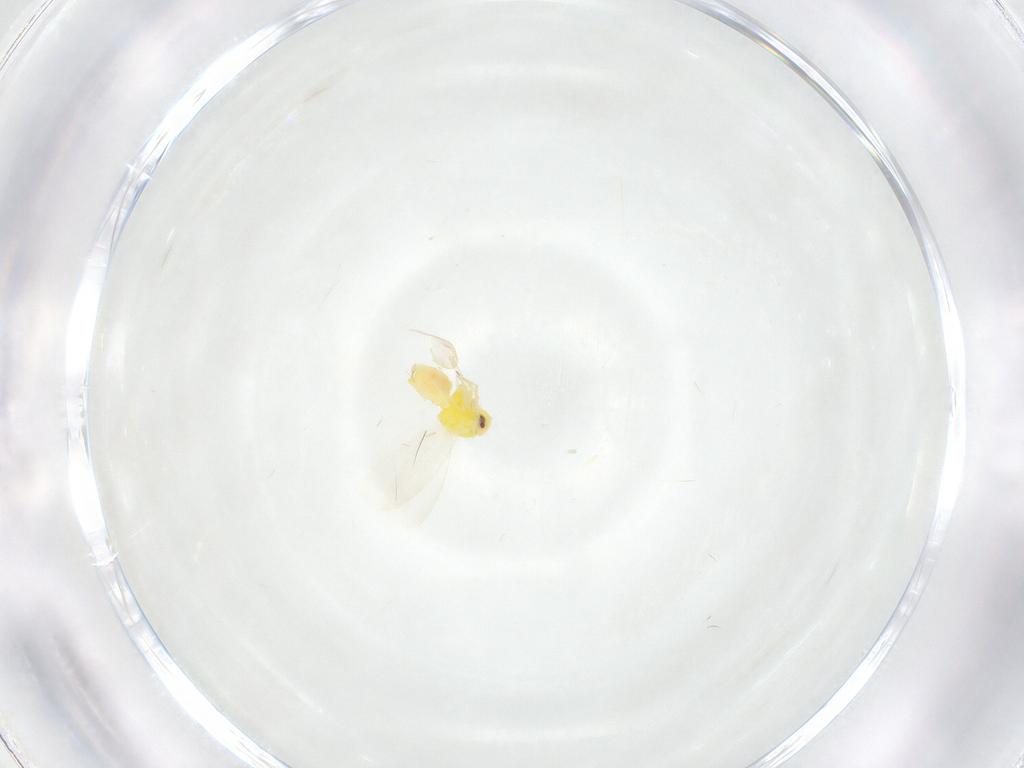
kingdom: Animalia
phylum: Arthropoda
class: Insecta
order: Hemiptera
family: Aleyrodidae
